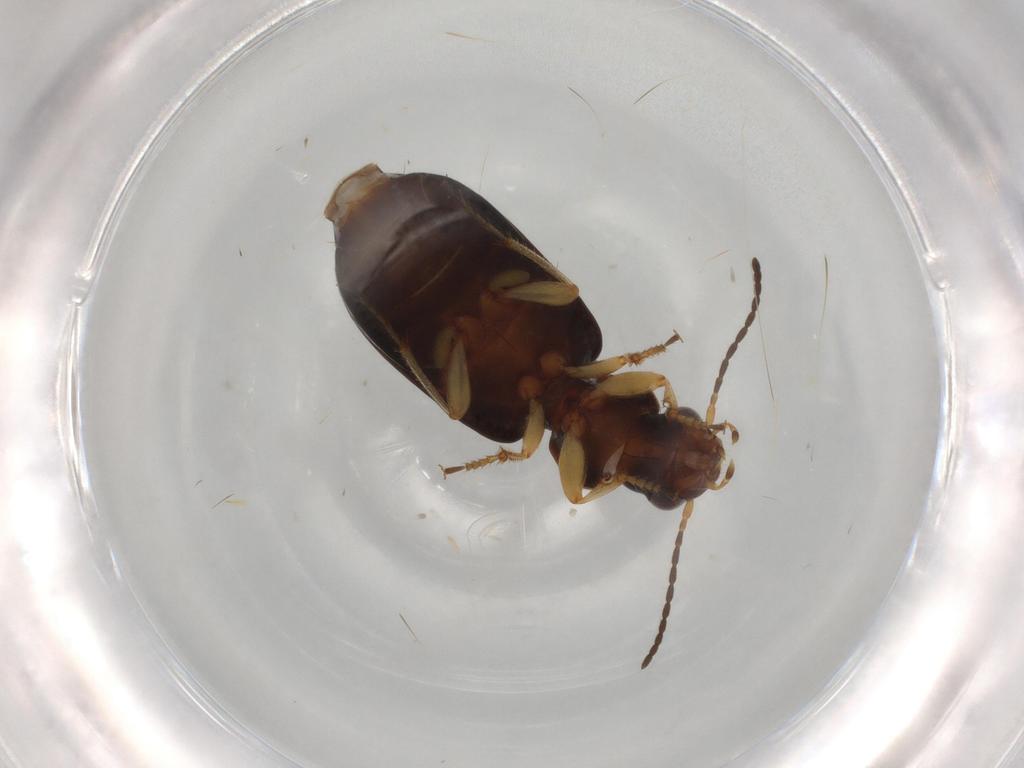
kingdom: Animalia
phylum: Arthropoda
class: Insecta
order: Coleoptera
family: Carabidae
